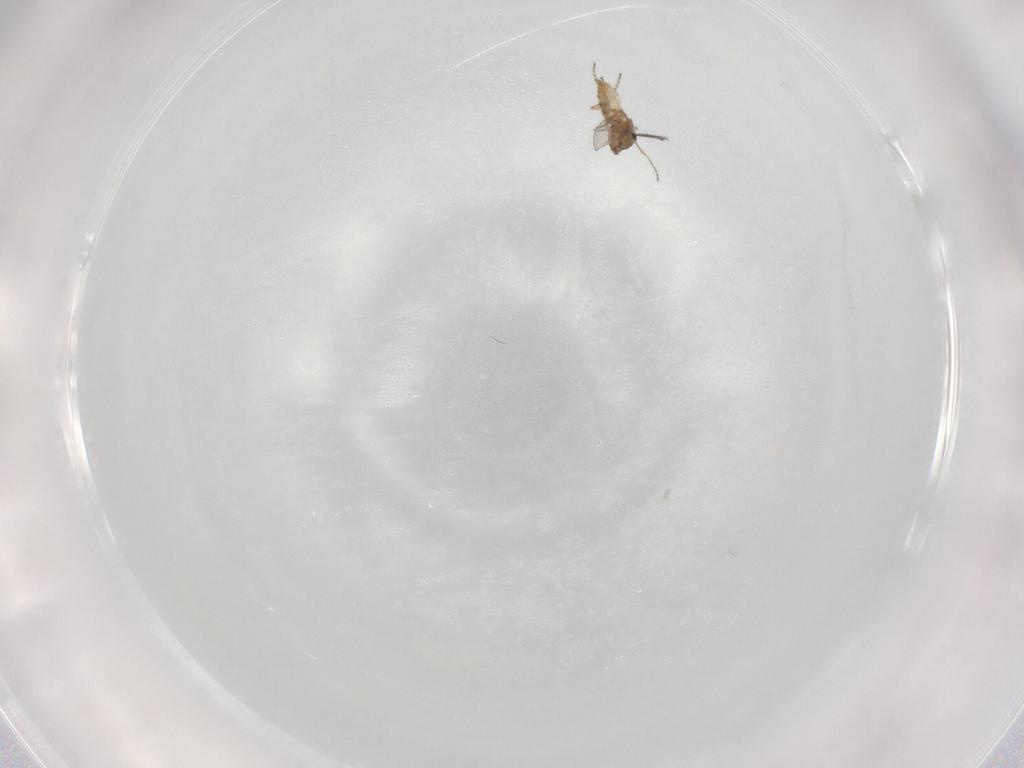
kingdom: Animalia
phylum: Arthropoda
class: Insecta
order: Diptera
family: Ceratopogonidae
